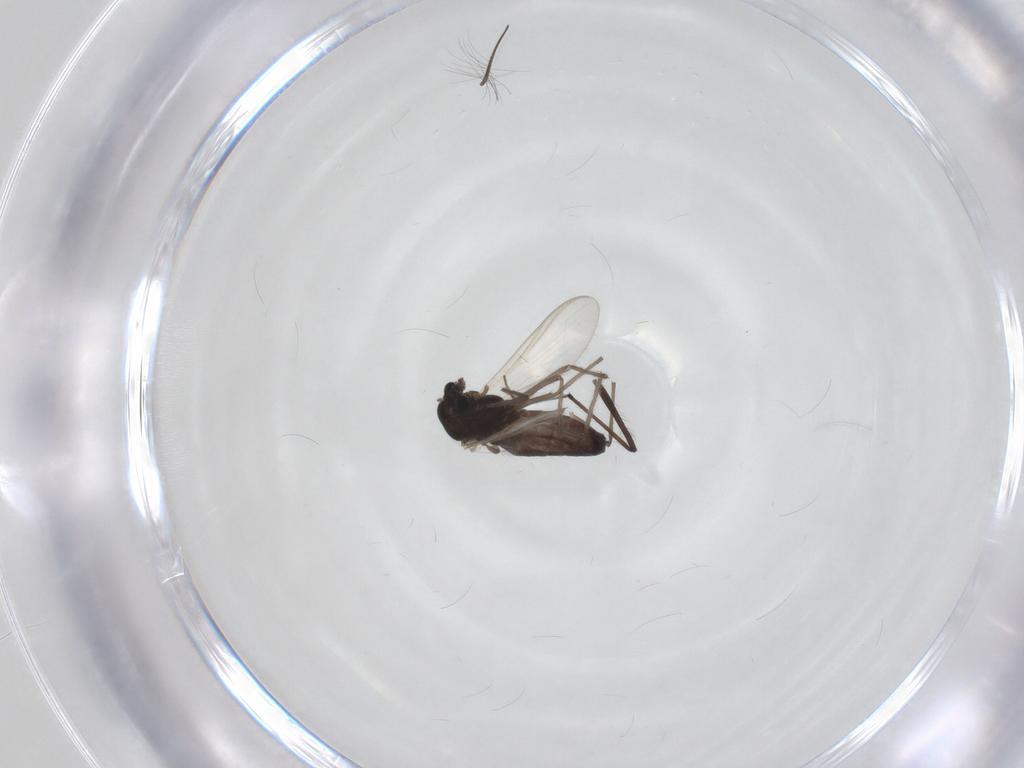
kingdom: Animalia
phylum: Arthropoda
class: Insecta
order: Diptera
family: Chironomidae
